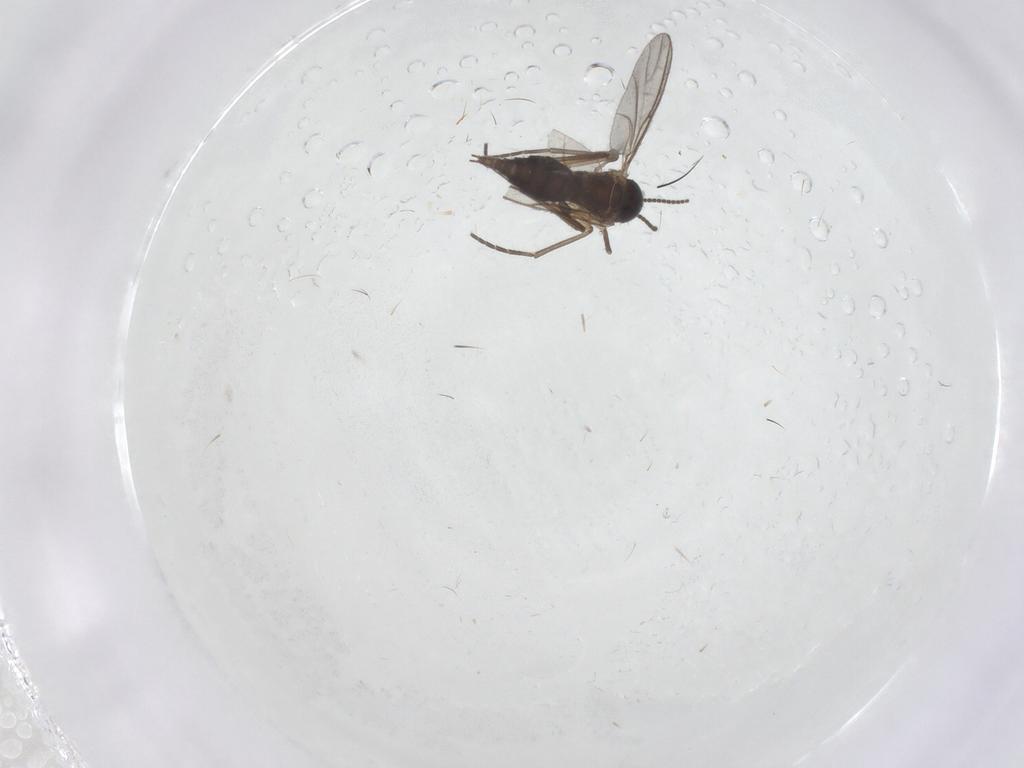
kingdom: Animalia
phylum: Arthropoda
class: Insecta
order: Diptera
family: Sciaridae
